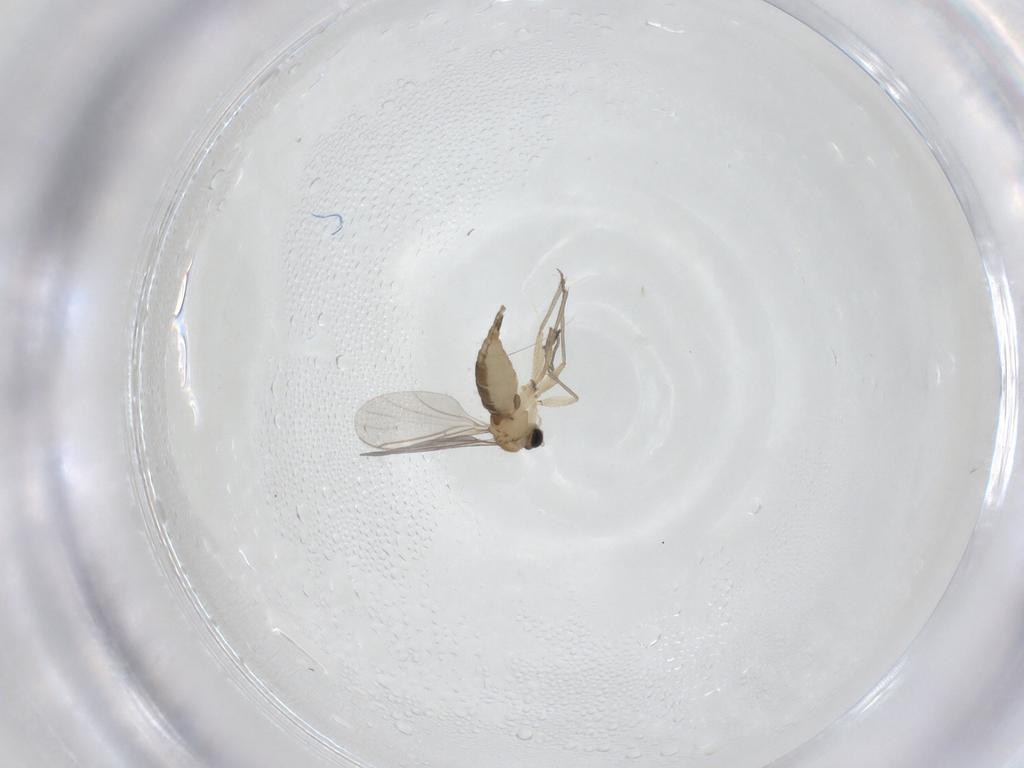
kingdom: Animalia
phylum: Arthropoda
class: Insecta
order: Diptera
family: Sciaridae
